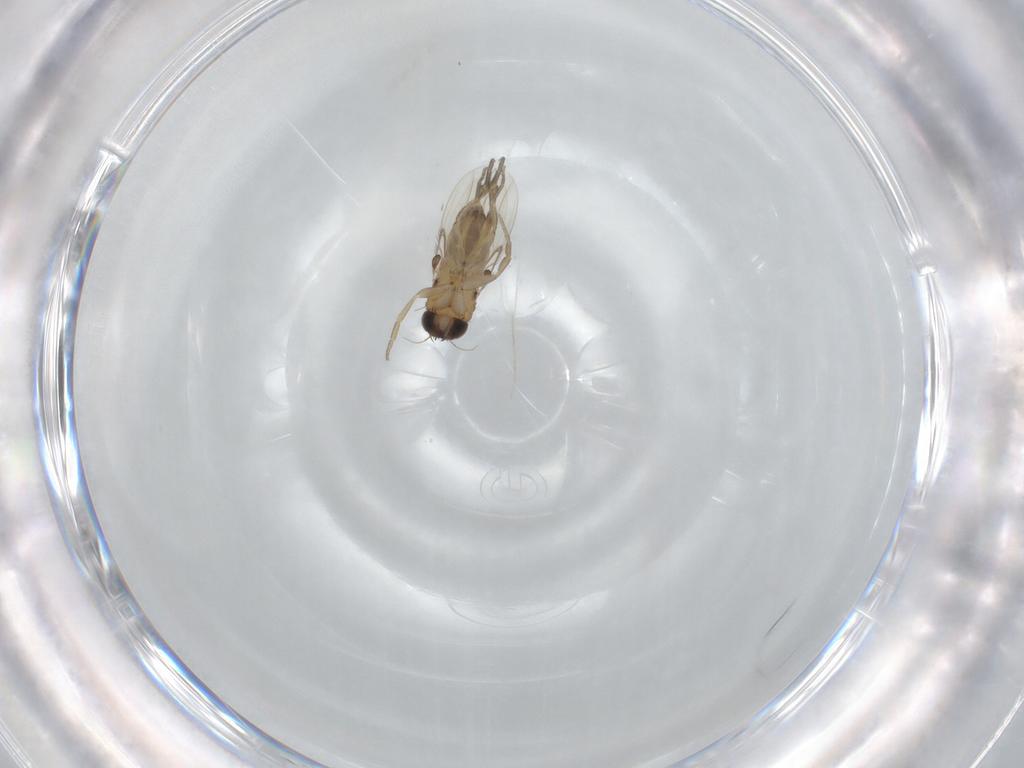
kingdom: Animalia
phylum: Arthropoda
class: Insecta
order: Diptera
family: Phoridae
